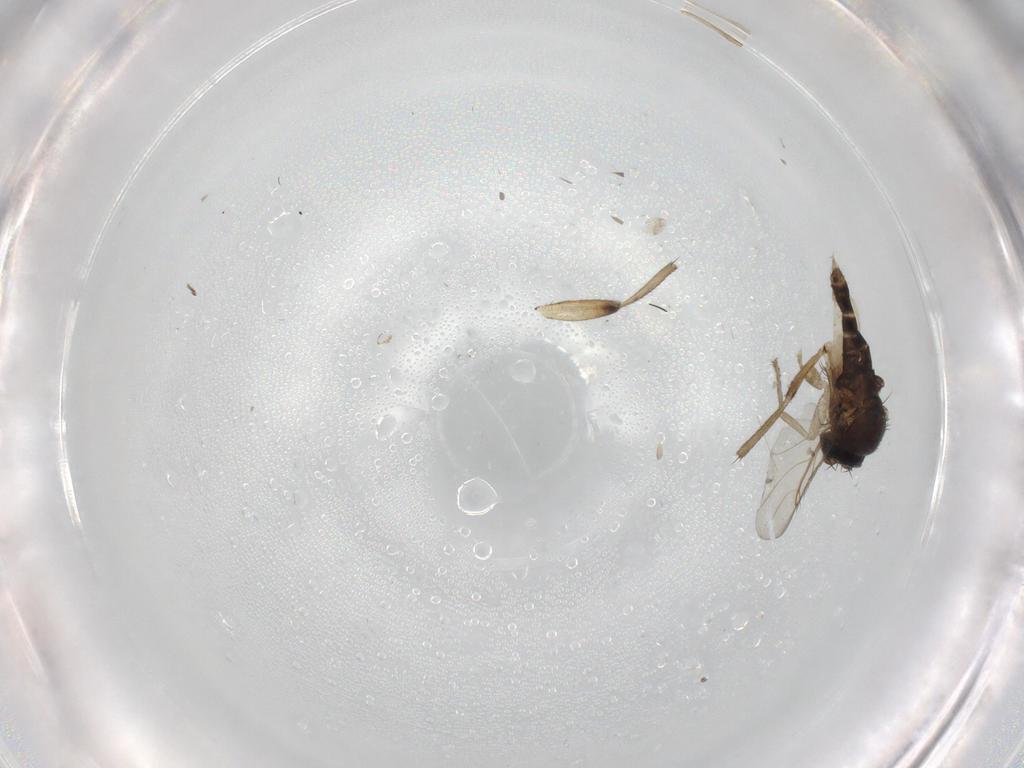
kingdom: Animalia
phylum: Arthropoda
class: Insecta
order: Diptera
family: Phoridae
